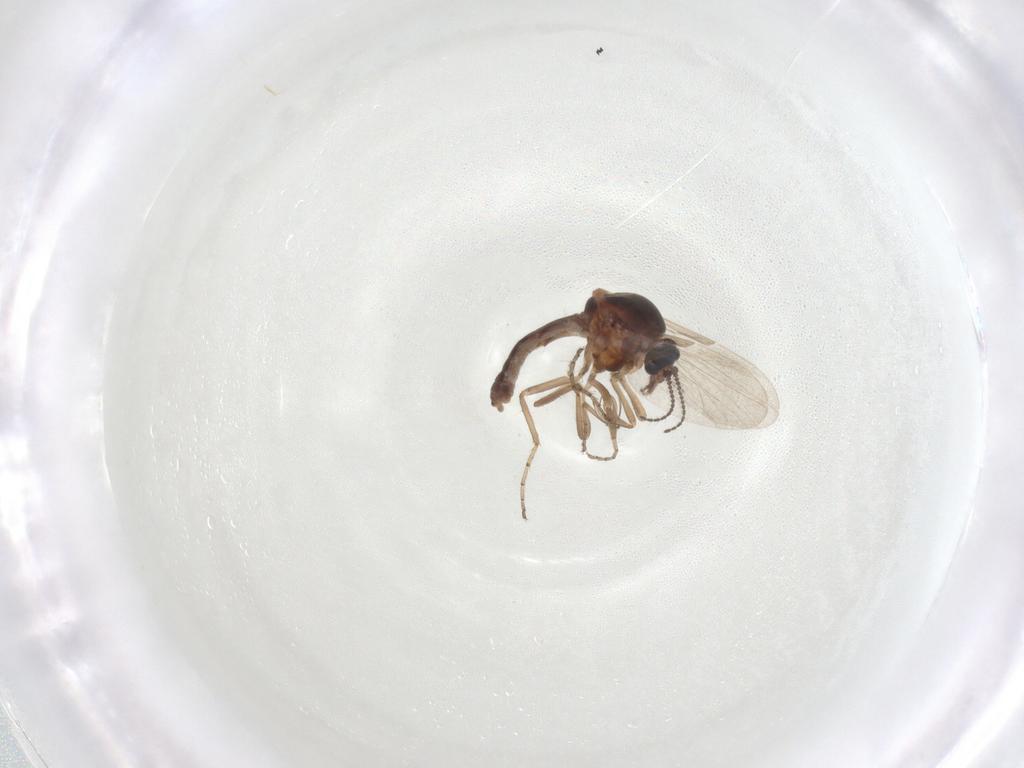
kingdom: Animalia
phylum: Arthropoda
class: Insecta
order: Diptera
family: Ceratopogonidae
